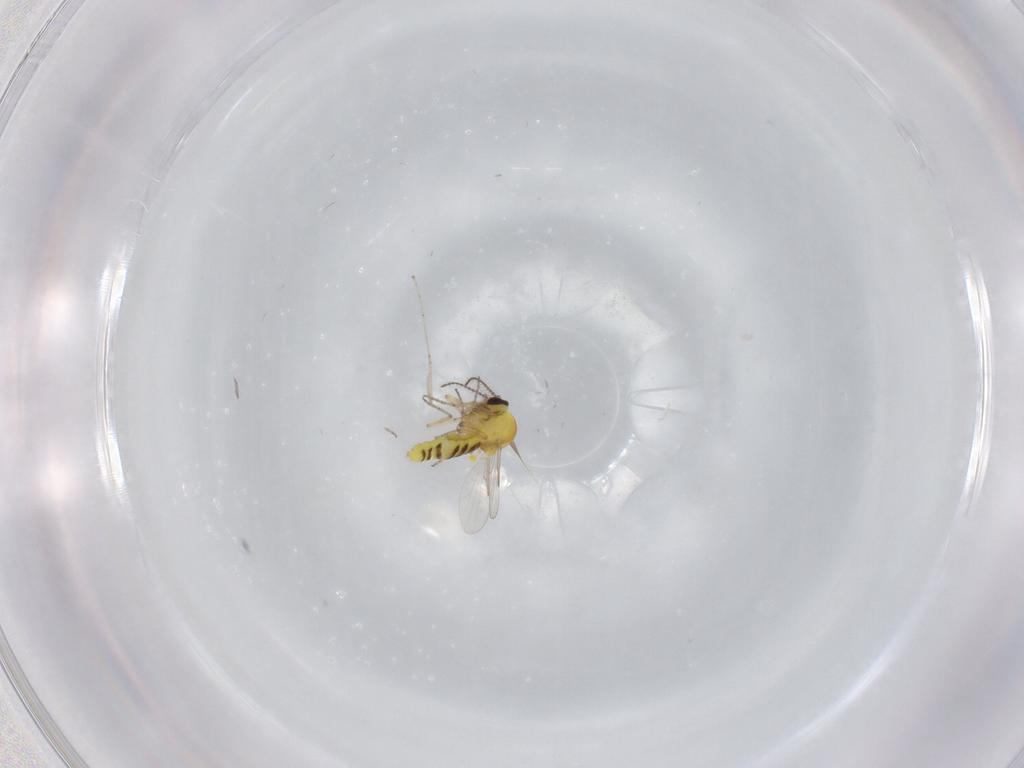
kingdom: Animalia
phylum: Arthropoda
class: Insecta
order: Diptera
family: Ceratopogonidae
